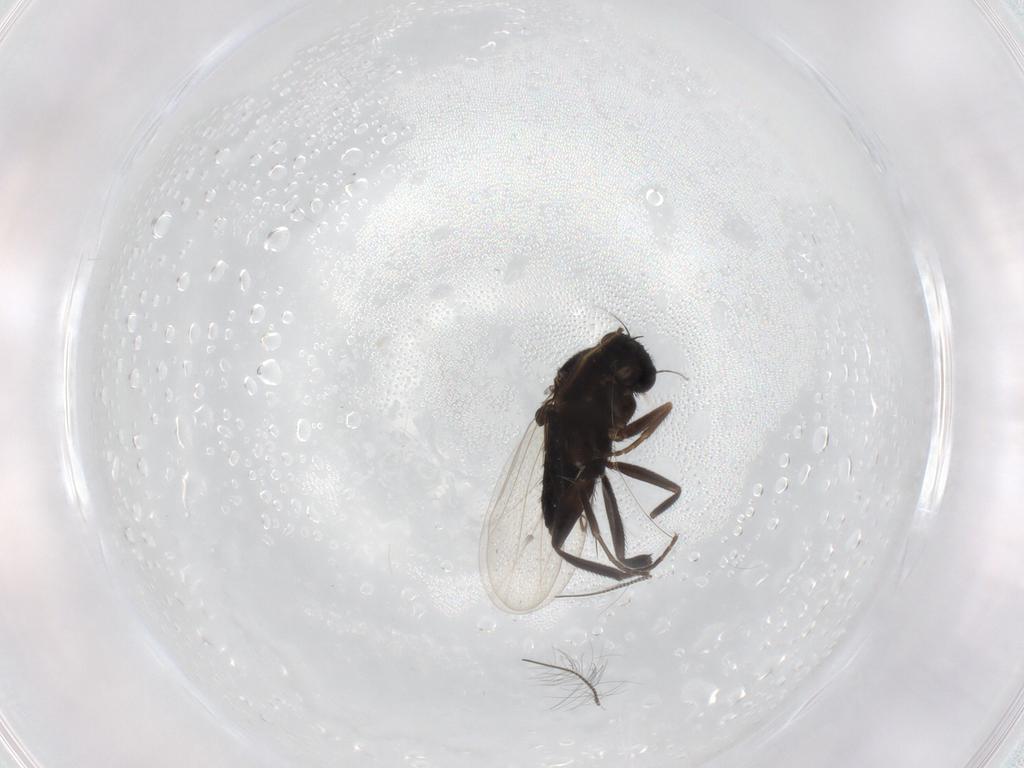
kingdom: Animalia
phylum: Arthropoda
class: Insecta
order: Diptera
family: Phoridae
